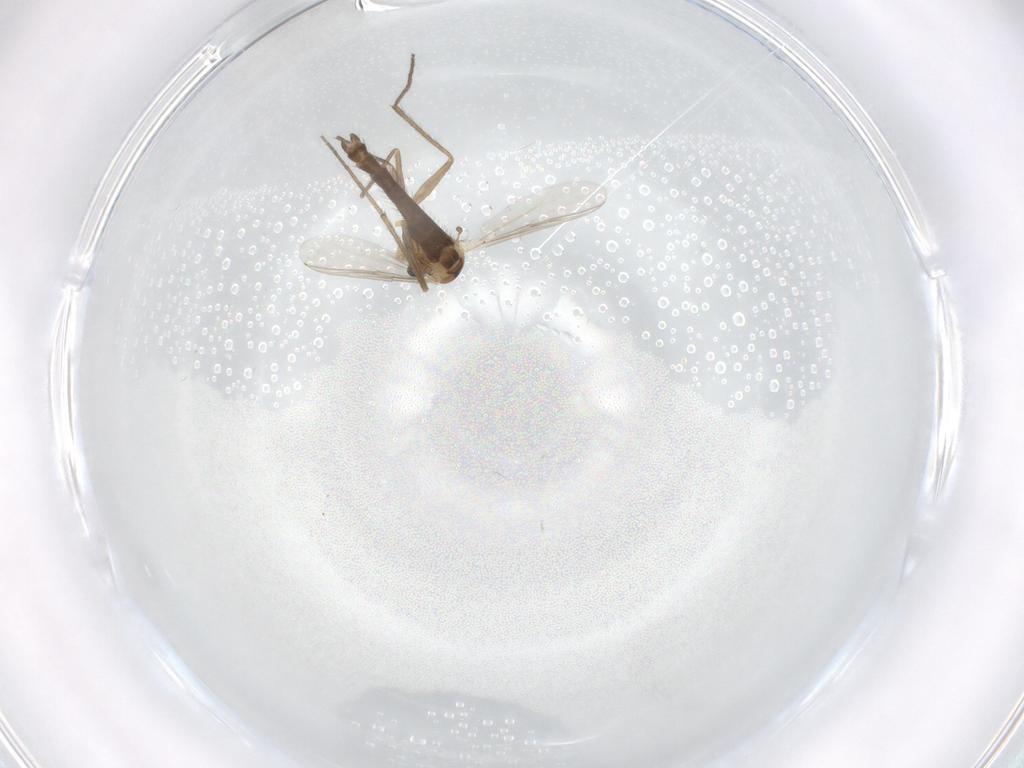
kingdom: Animalia
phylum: Arthropoda
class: Insecta
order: Diptera
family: Chironomidae
